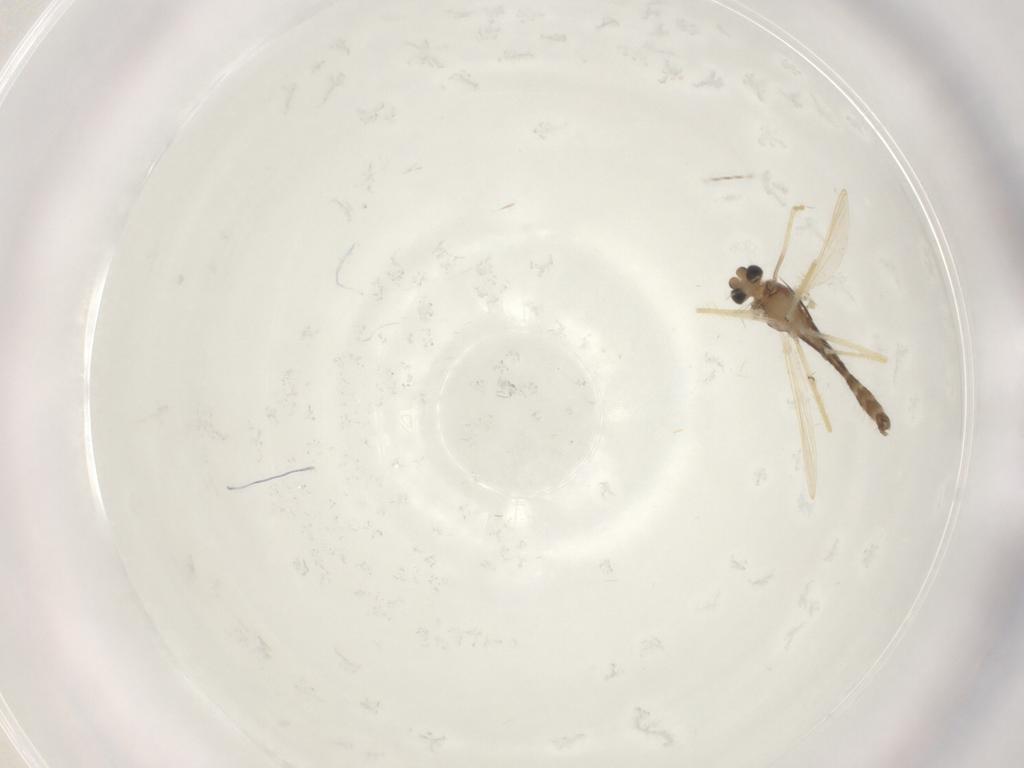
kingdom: Animalia
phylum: Arthropoda
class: Insecta
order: Diptera
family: Chironomidae
